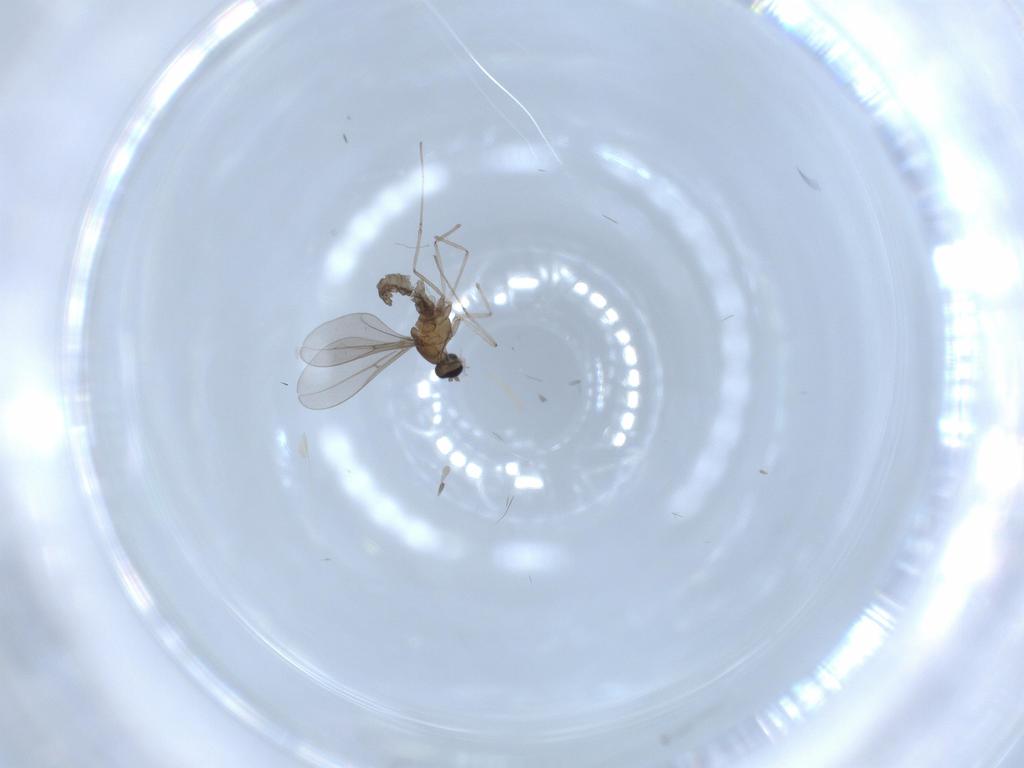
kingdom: Animalia
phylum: Arthropoda
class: Insecta
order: Diptera
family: Cecidomyiidae
